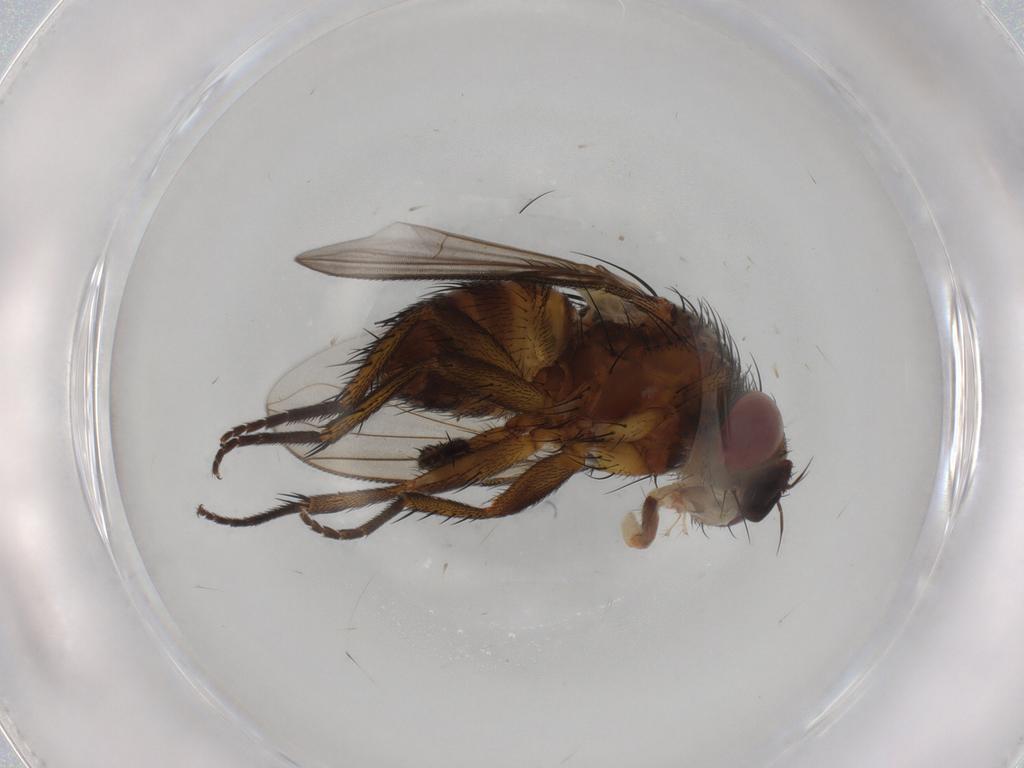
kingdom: Animalia
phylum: Arthropoda
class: Insecta
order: Diptera
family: Tachinidae
